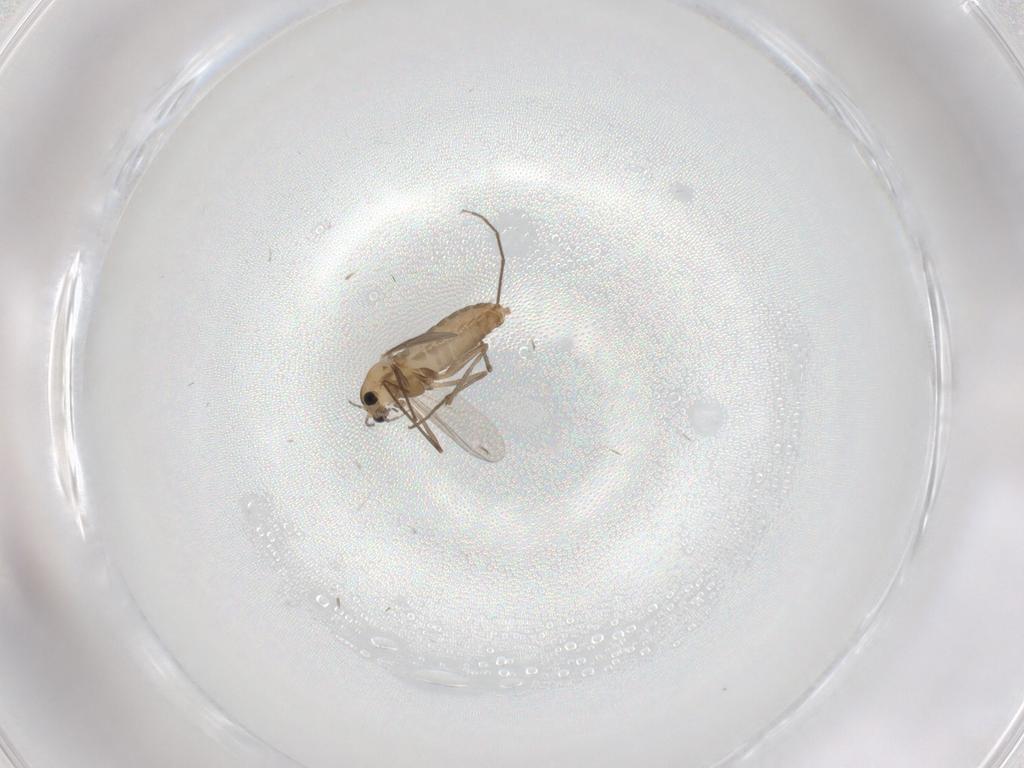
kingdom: Animalia
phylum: Arthropoda
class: Insecta
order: Diptera
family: Chironomidae
